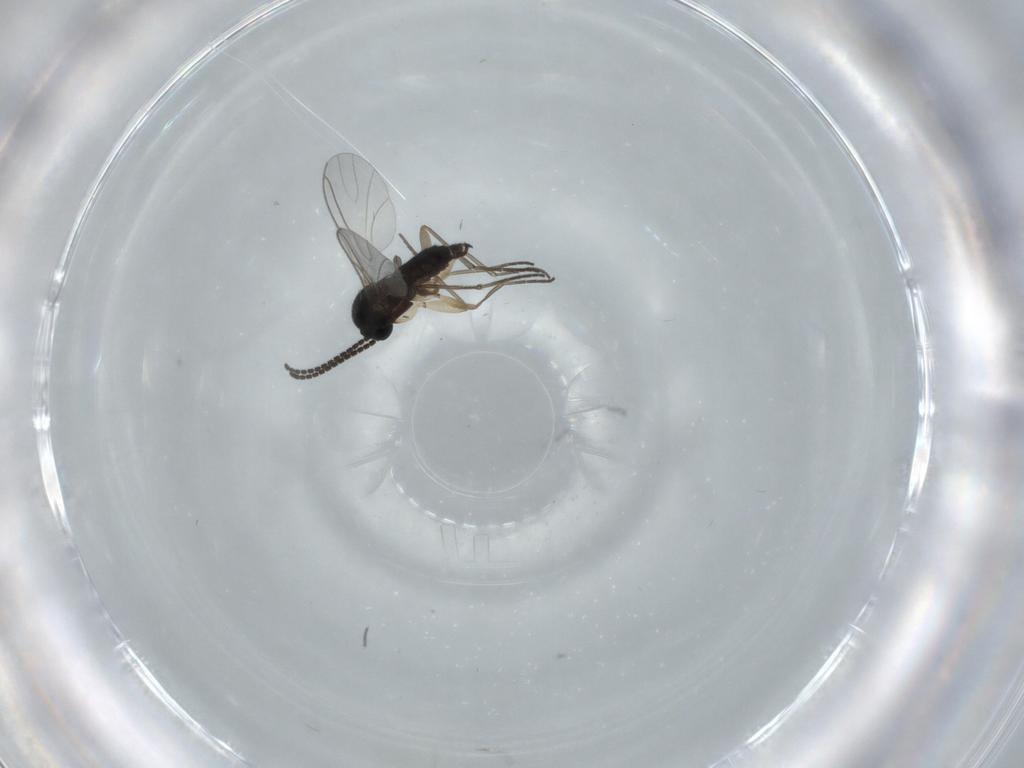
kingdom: Animalia
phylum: Arthropoda
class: Insecta
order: Diptera
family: Sciaridae
